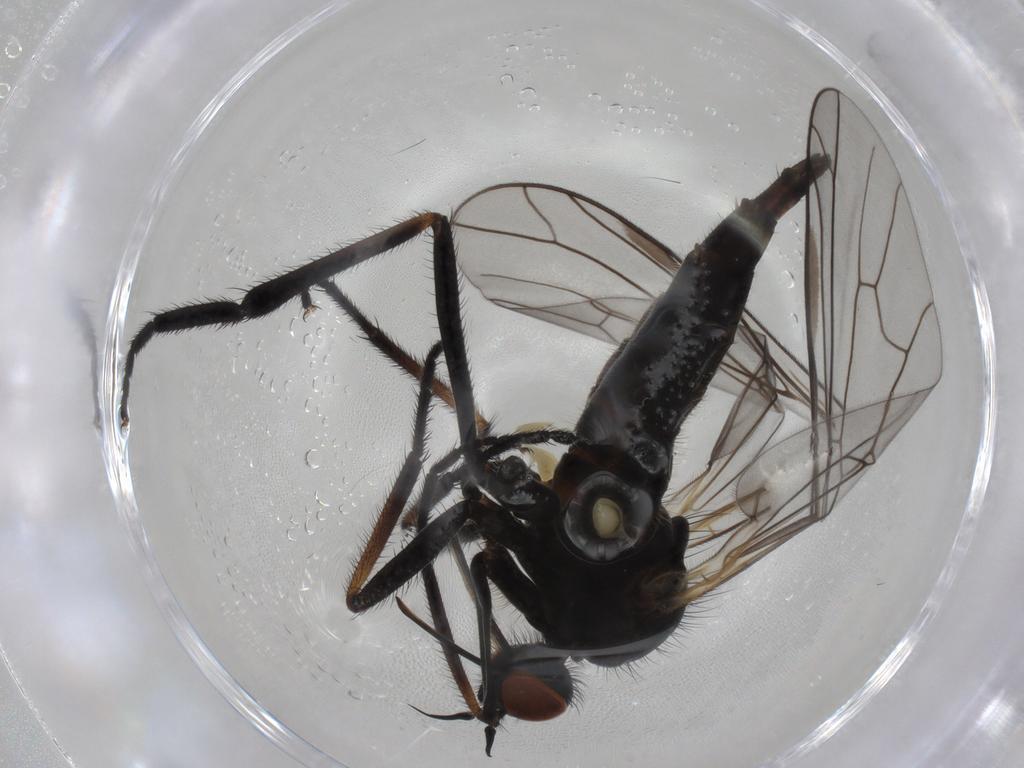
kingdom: Animalia
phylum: Arthropoda
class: Insecta
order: Diptera
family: Empididae
